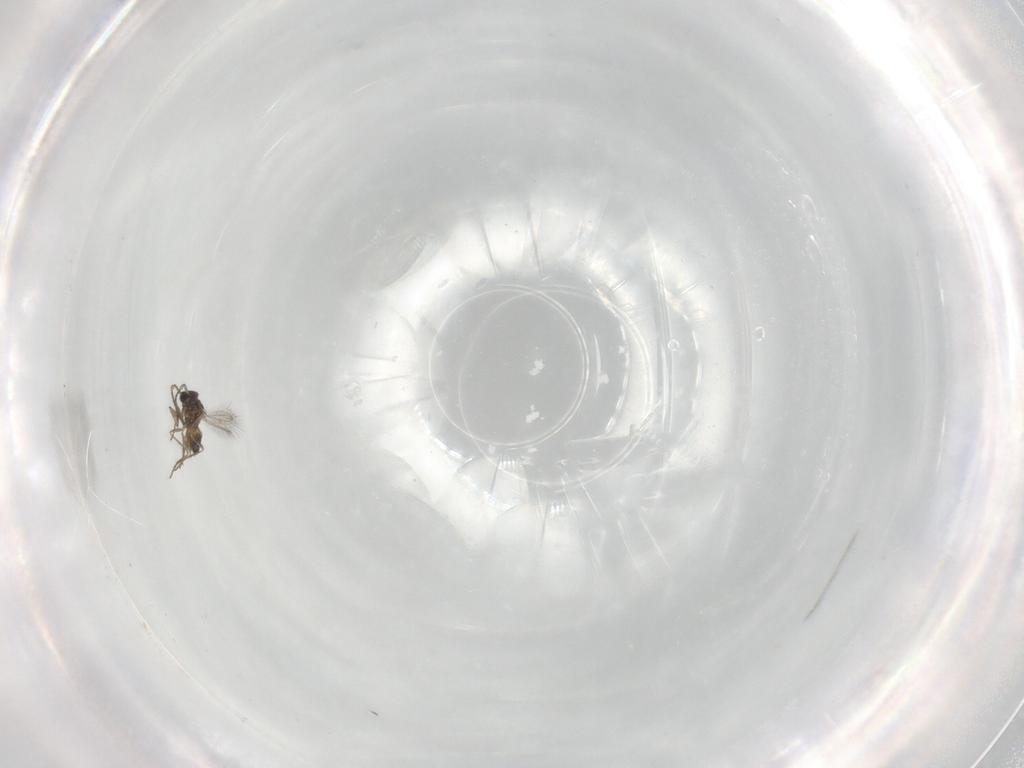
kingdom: Animalia
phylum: Arthropoda
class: Insecta
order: Hymenoptera
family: Mymaridae
